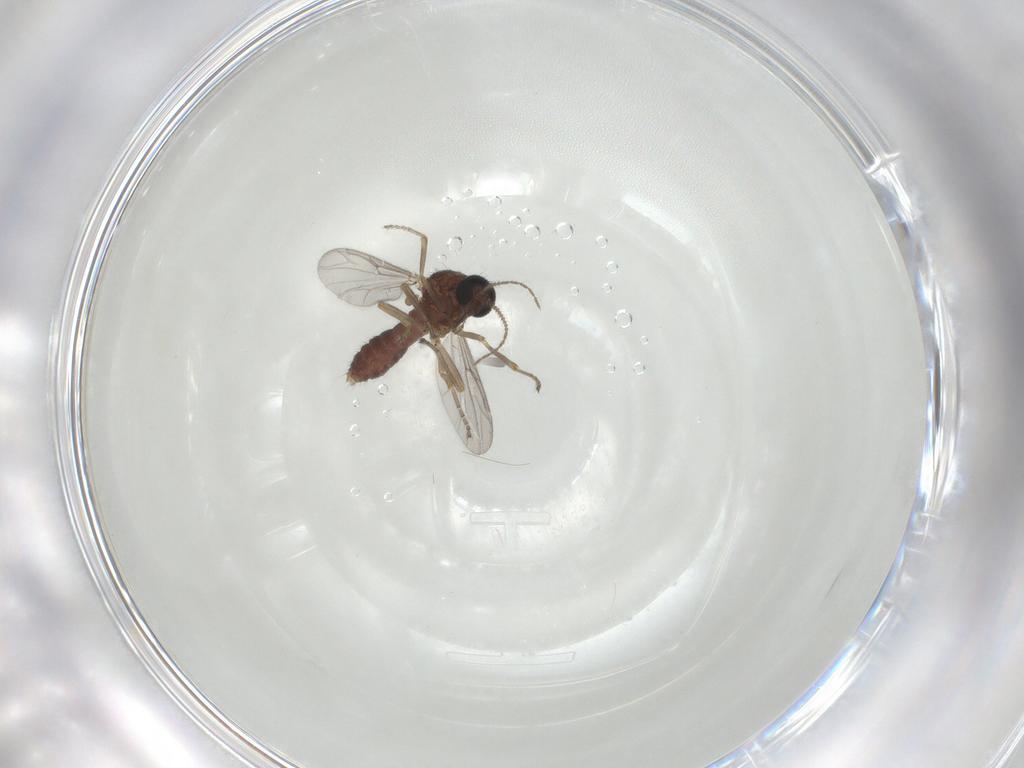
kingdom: Animalia
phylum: Arthropoda
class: Insecta
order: Diptera
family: Ceratopogonidae
